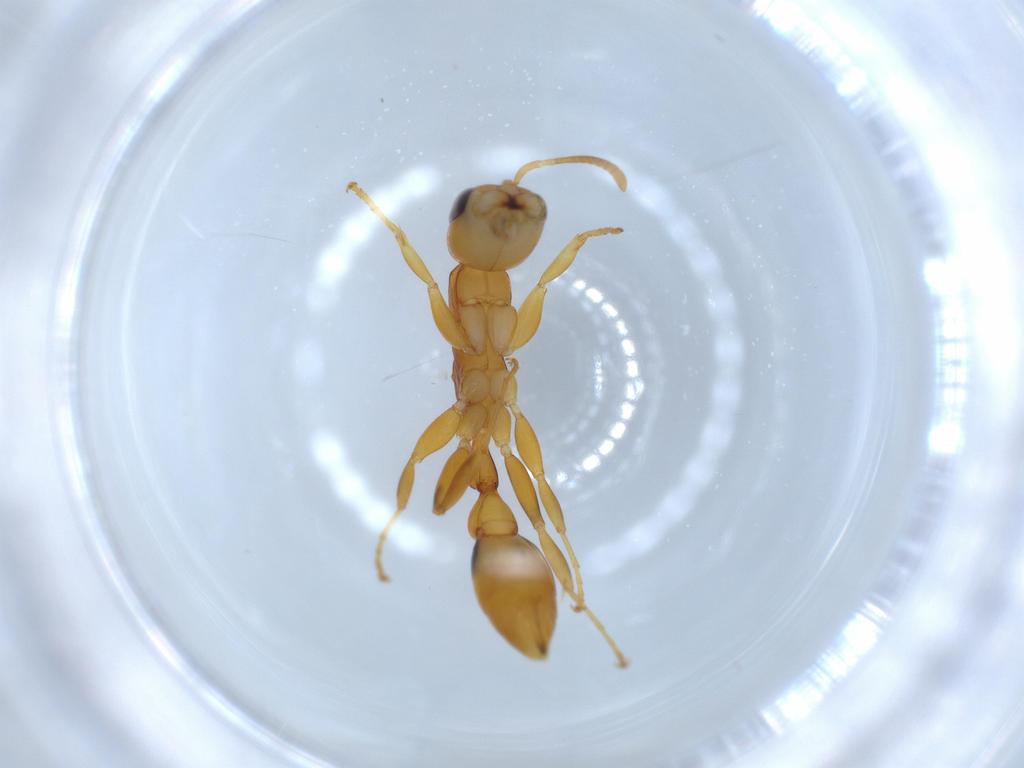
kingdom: Animalia
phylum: Arthropoda
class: Insecta
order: Hymenoptera
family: Formicidae
